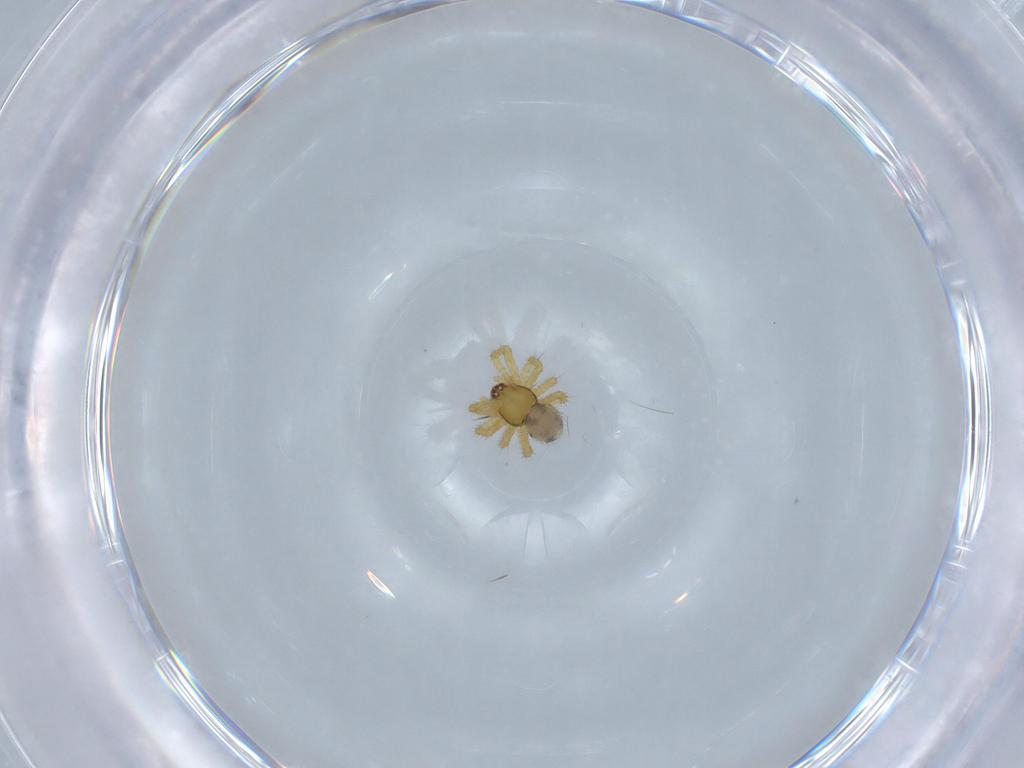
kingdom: Animalia
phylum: Arthropoda
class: Arachnida
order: Araneae
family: Theridiidae
